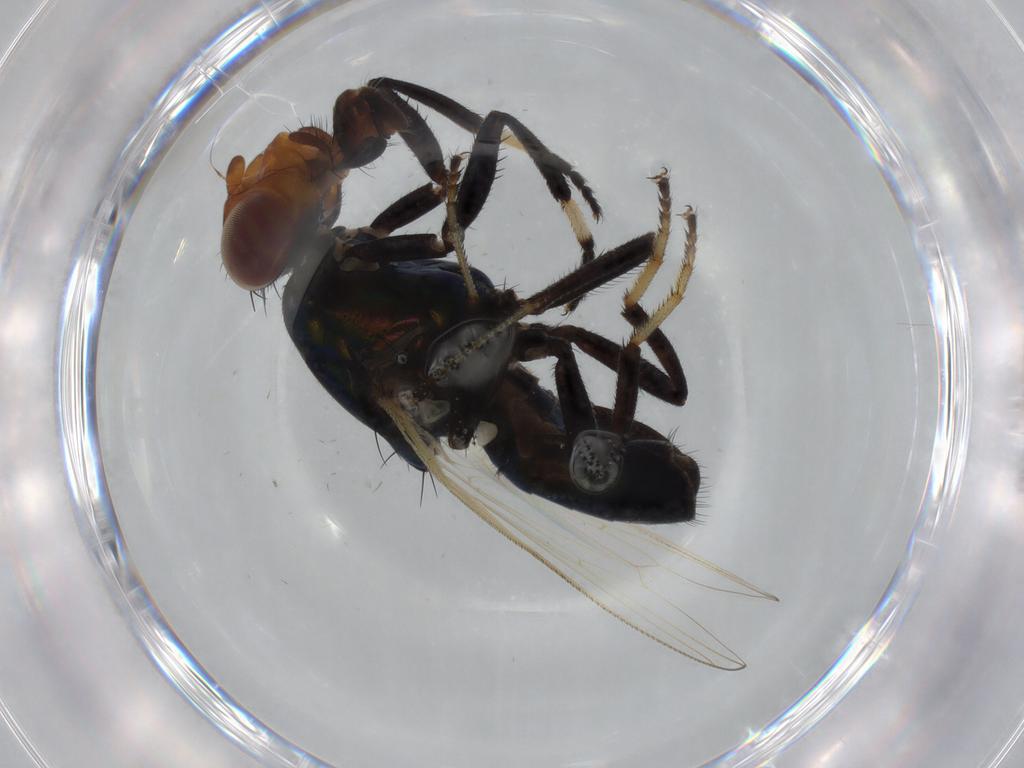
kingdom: Animalia
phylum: Arthropoda
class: Insecta
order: Diptera
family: Ulidiidae
